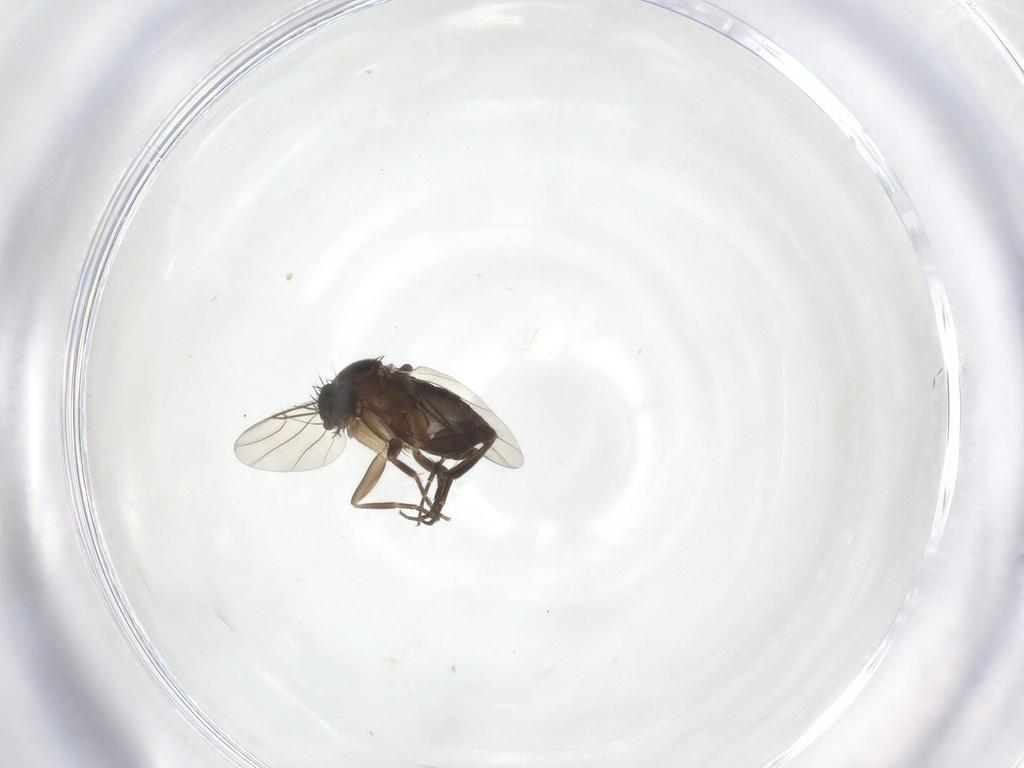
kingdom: Animalia
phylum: Arthropoda
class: Insecta
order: Diptera
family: Phoridae
